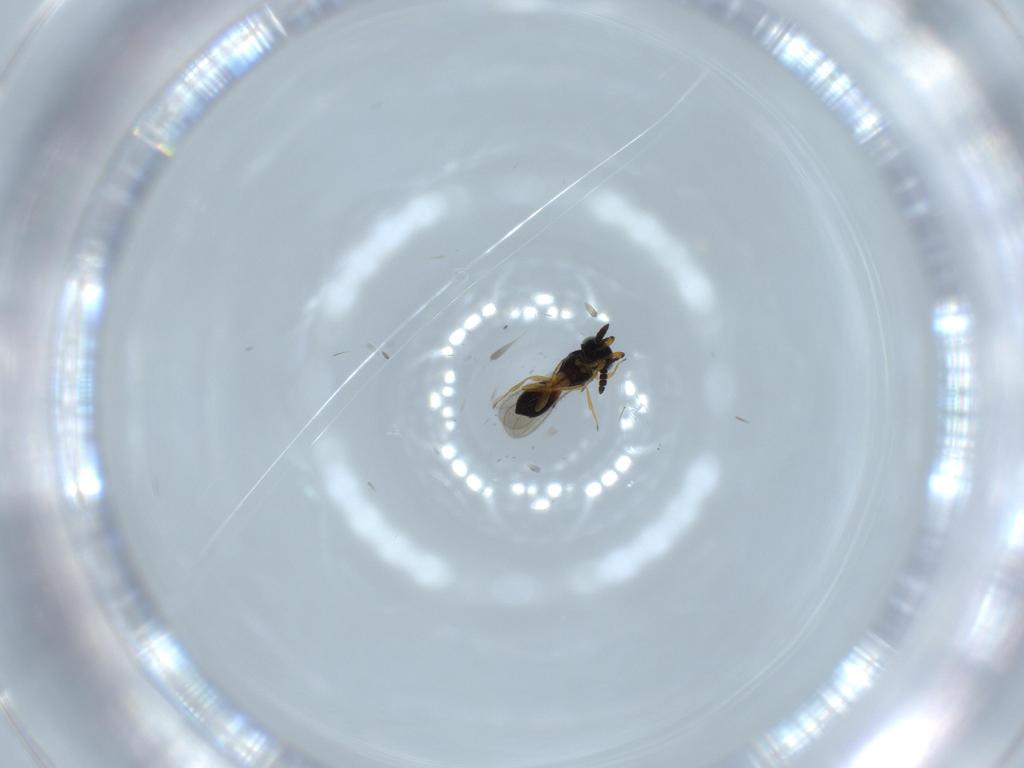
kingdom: Animalia
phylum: Arthropoda
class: Insecta
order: Hymenoptera
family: Scelionidae
